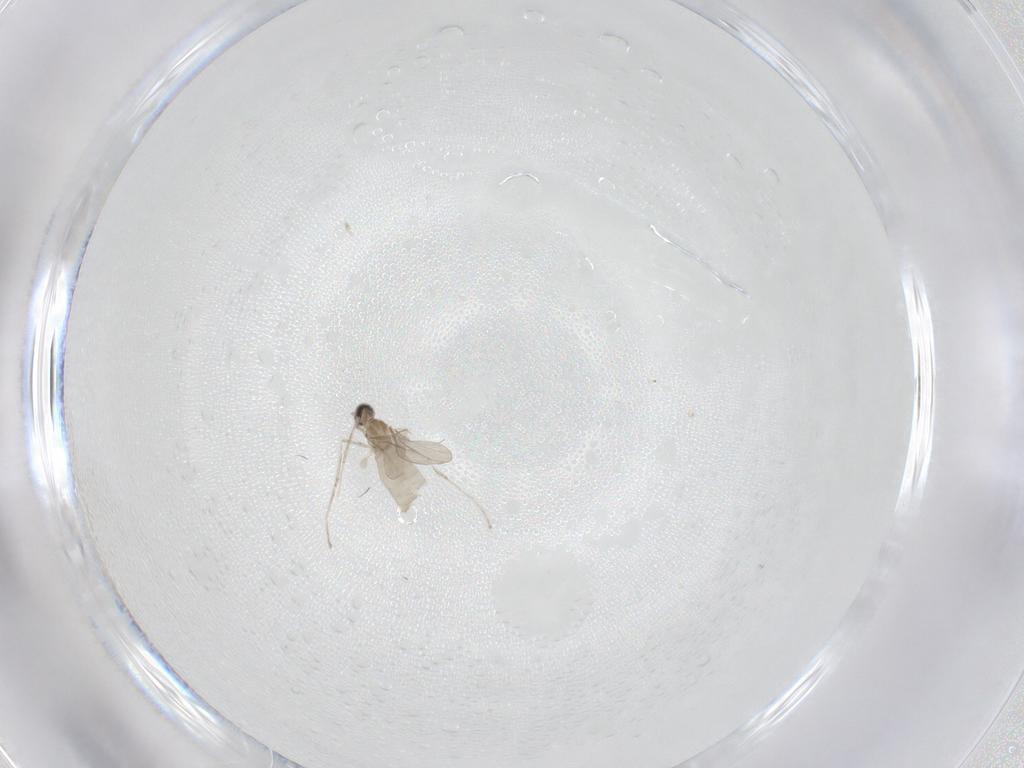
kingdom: Animalia
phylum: Arthropoda
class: Insecta
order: Diptera
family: Cecidomyiidae
